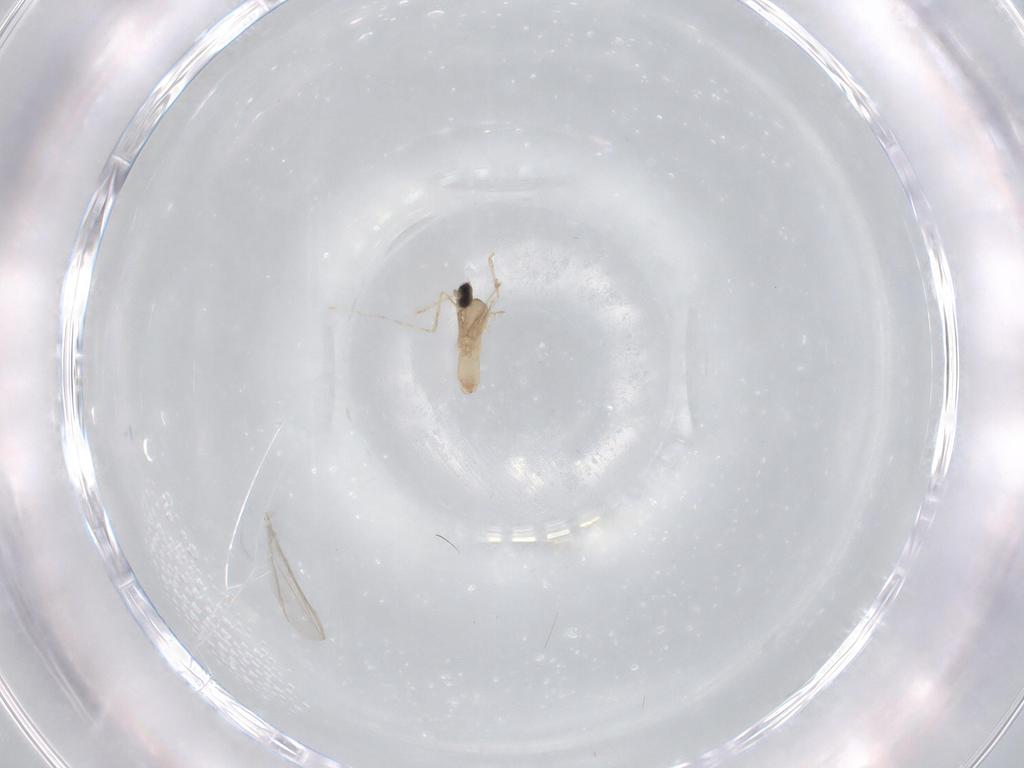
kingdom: Animalia
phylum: Arthropoda
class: Insecta
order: Diptera
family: Cecidomyiidae
